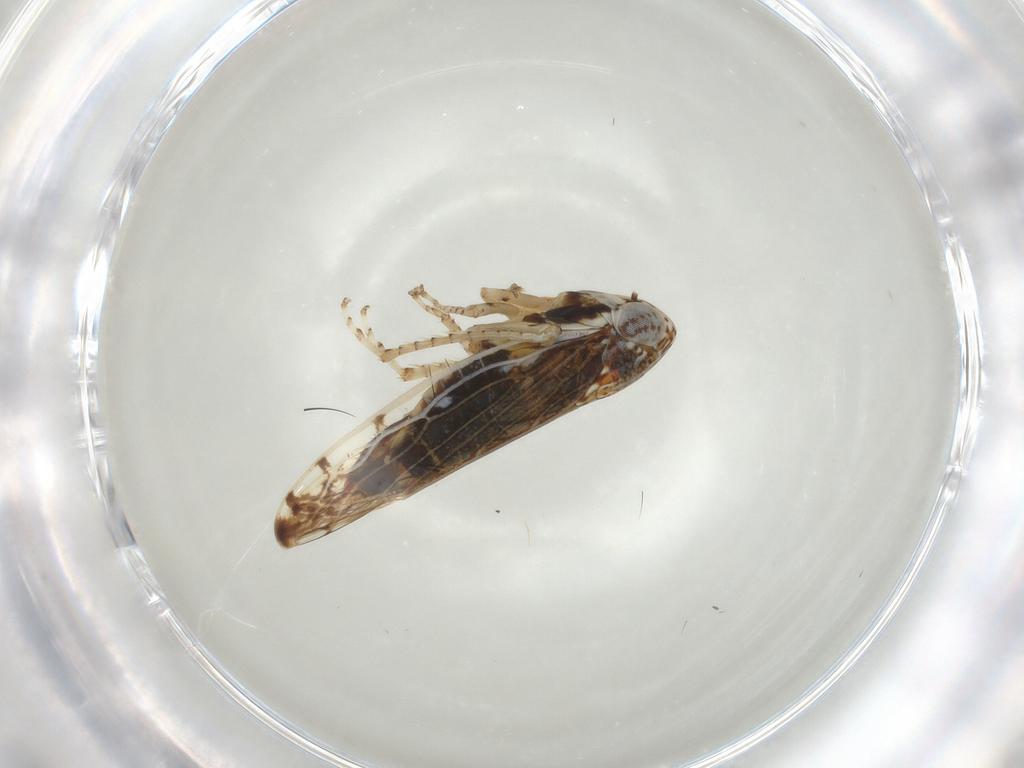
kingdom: Animalia
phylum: Arthropoda
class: Insecta
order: Hemiptera
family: Cicadellidae
